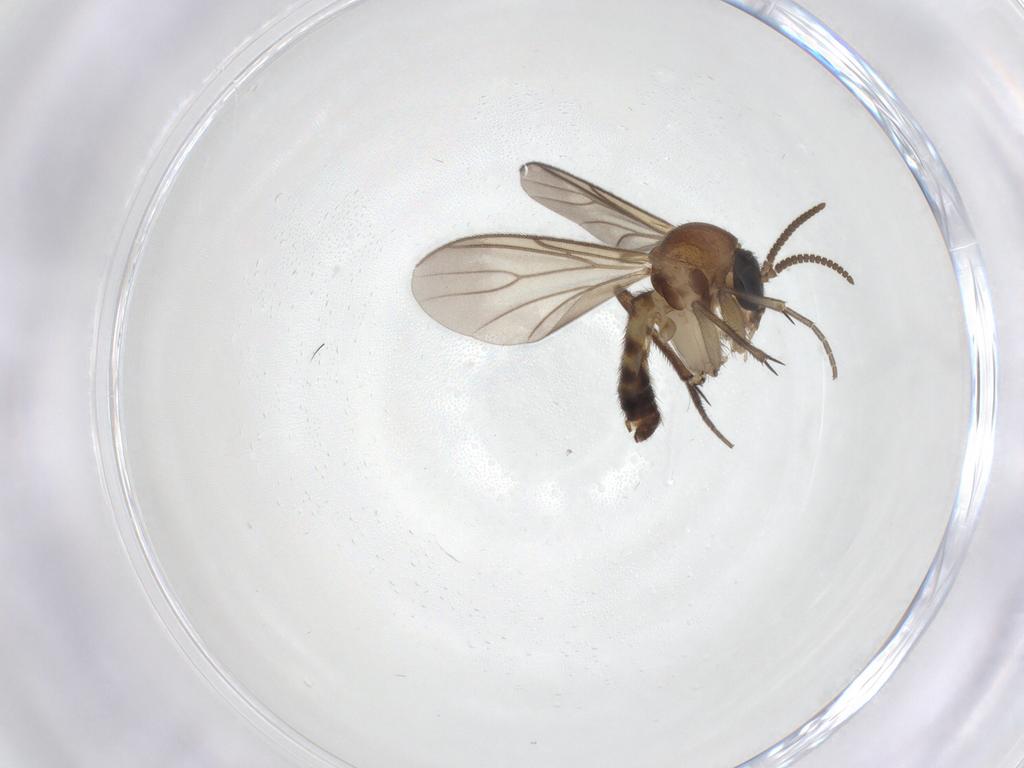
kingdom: Animalia
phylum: Arthropoda
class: Insecta
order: Diptera
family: Mycetophilidae
